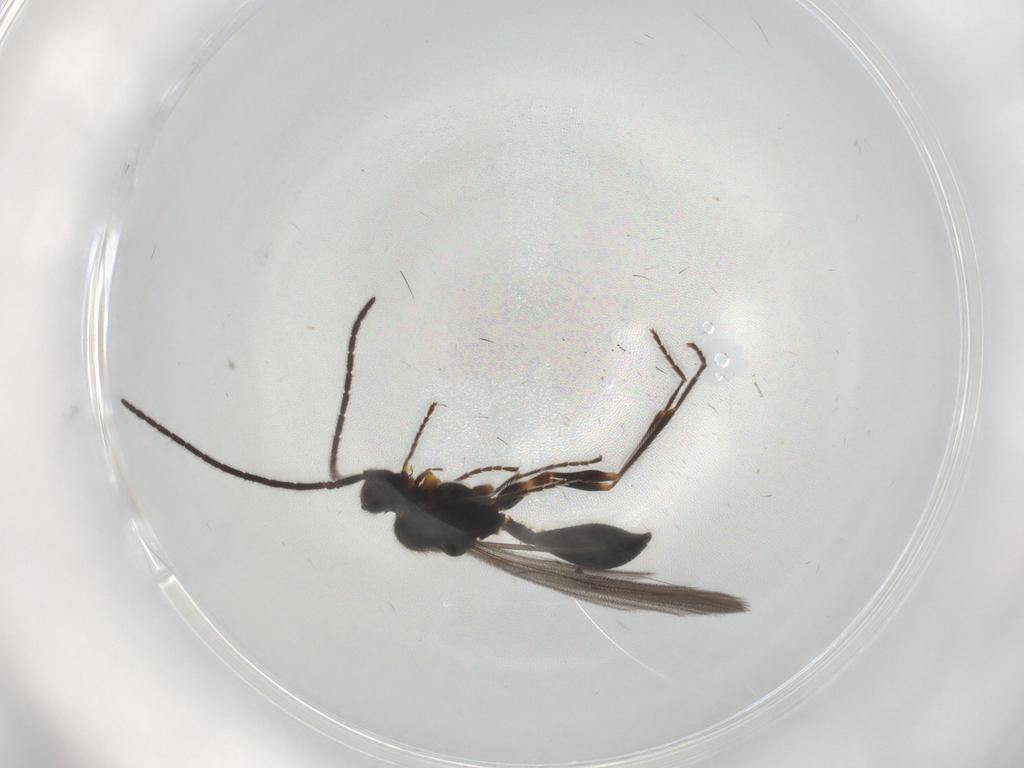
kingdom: Animalia
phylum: Arthropoda
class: Insecta
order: Hymenoptera
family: Diapriidae
